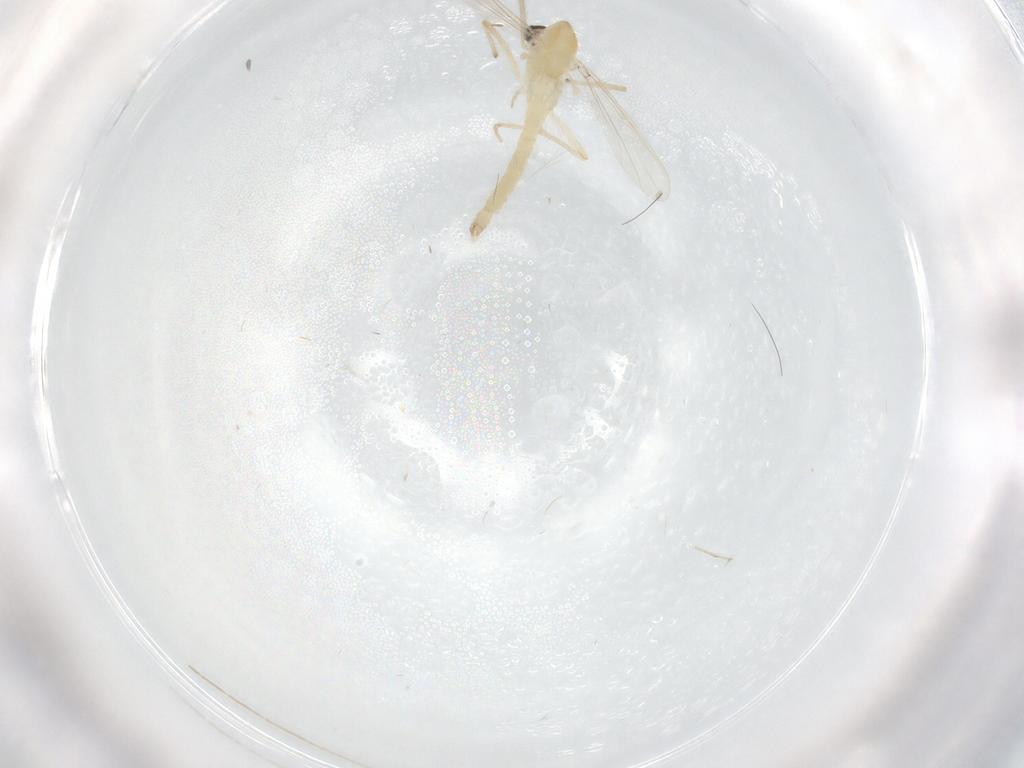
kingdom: Animalia
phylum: Arthropoda
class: Insecta
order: Diptera
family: Chironomidae
